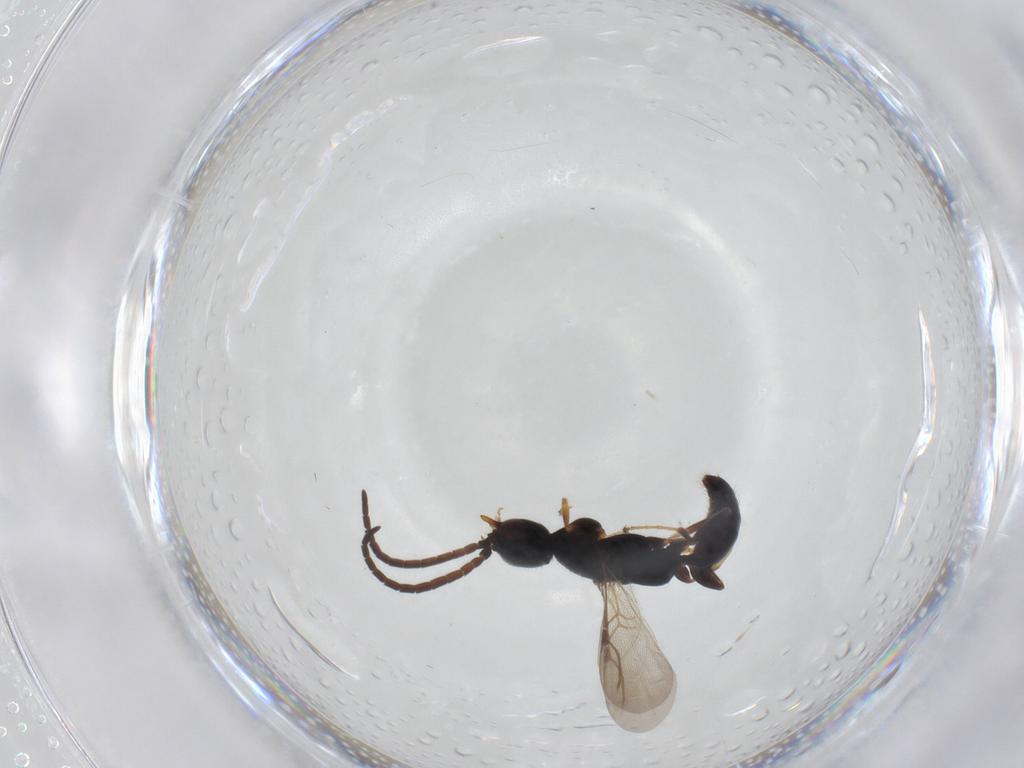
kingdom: Animalia
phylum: Arthropoda
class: Insecta
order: Hymenoptera
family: Bethylidae
